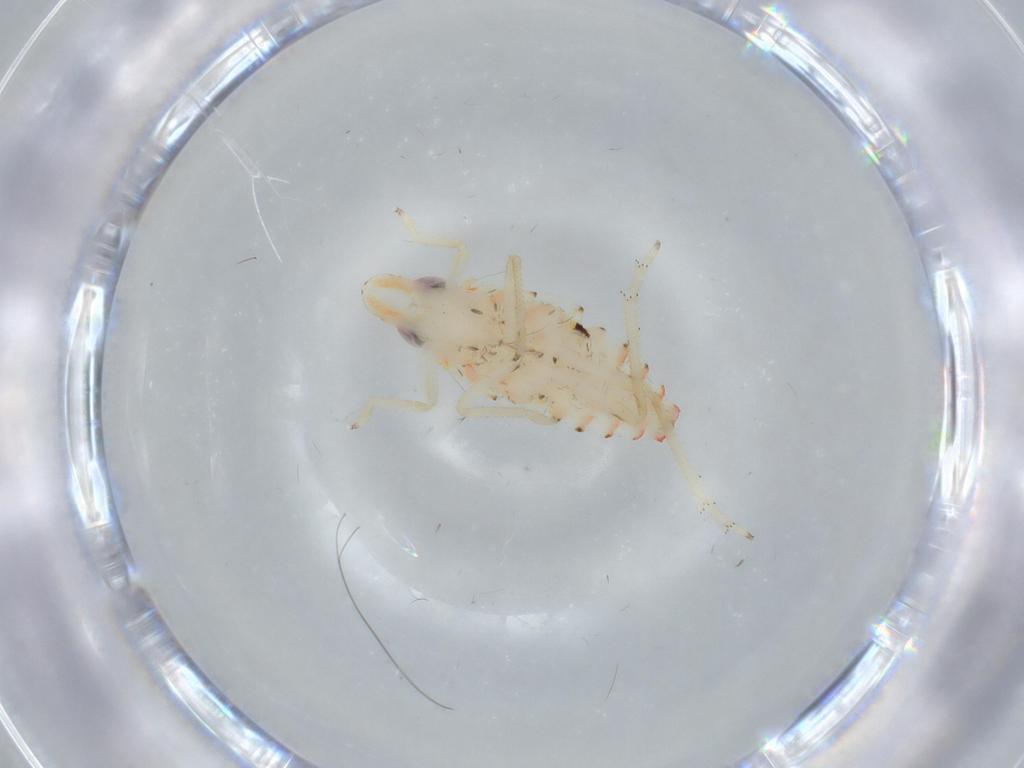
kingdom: Animalia
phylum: Arthropoda
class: Insecta
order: Hemiptera
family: Tropiduchidae
